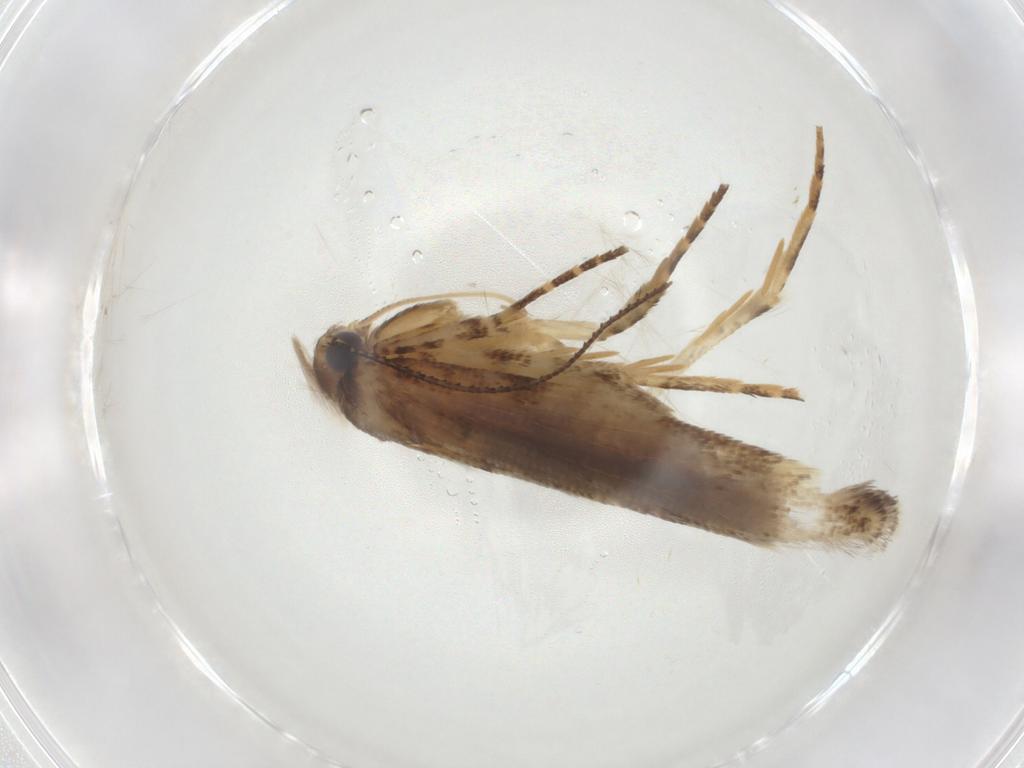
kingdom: Animalia
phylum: Arthropoda
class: Insecta
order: Lepidoptera
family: Gelechiidae
